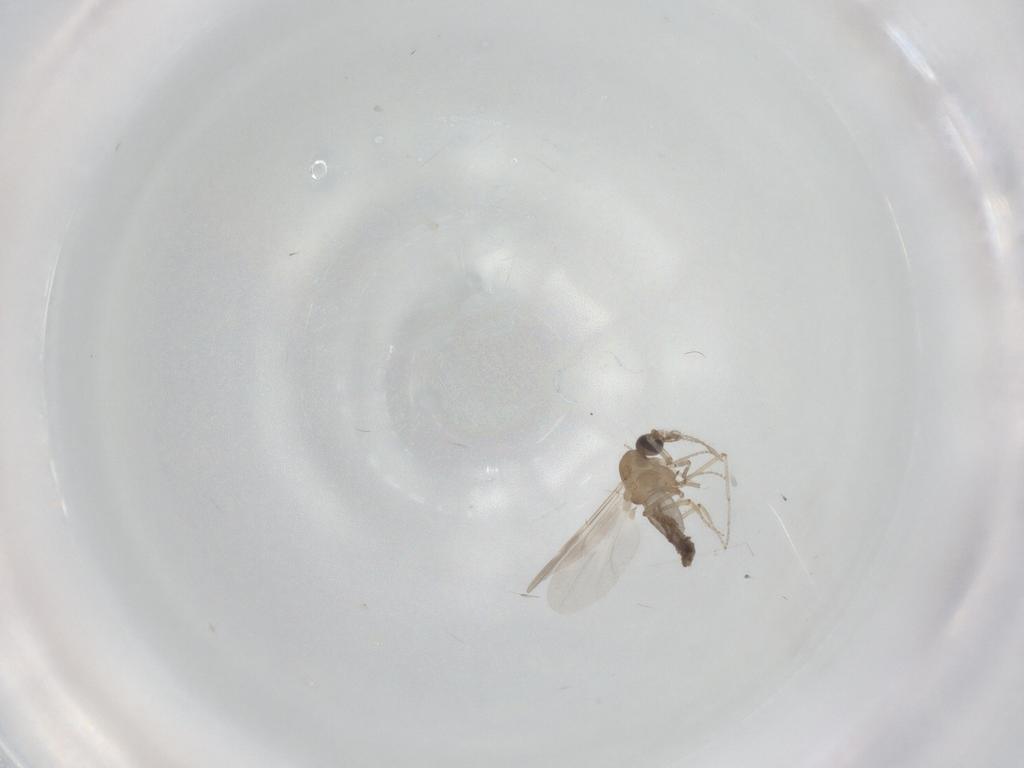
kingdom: Animalia
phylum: Arthropoda
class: Insecta
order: Diptera
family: Ceratopogonidae
